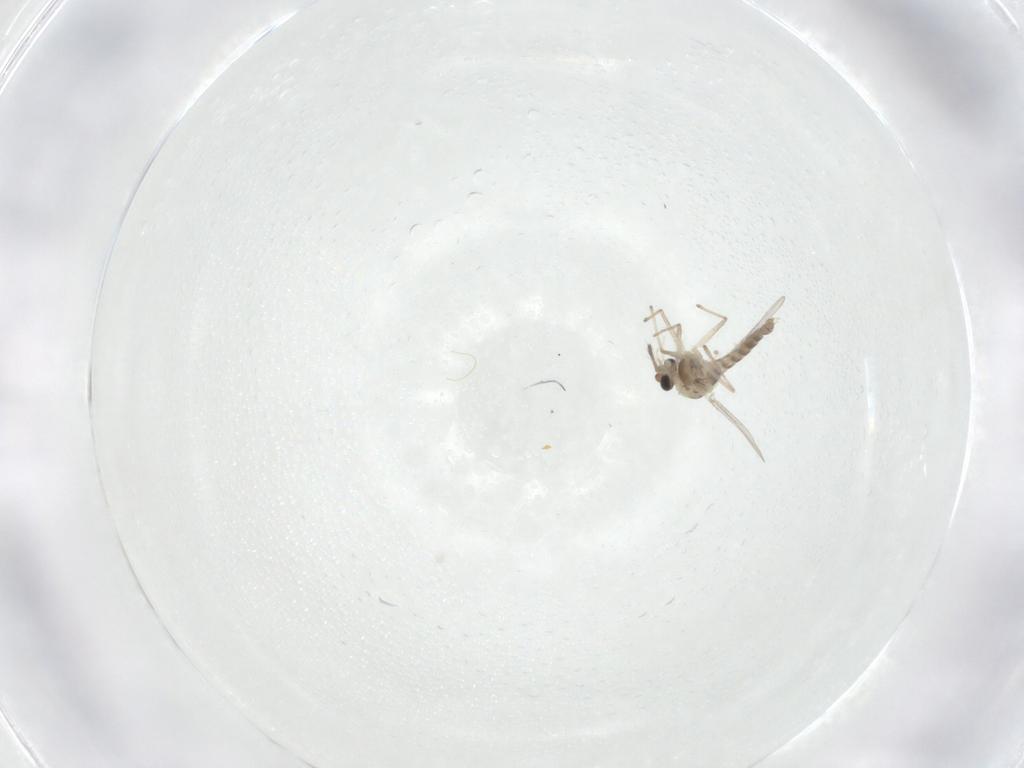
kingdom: Animalia
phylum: Arthropoda
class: Insecta
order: Diptera
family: Chironomidae
